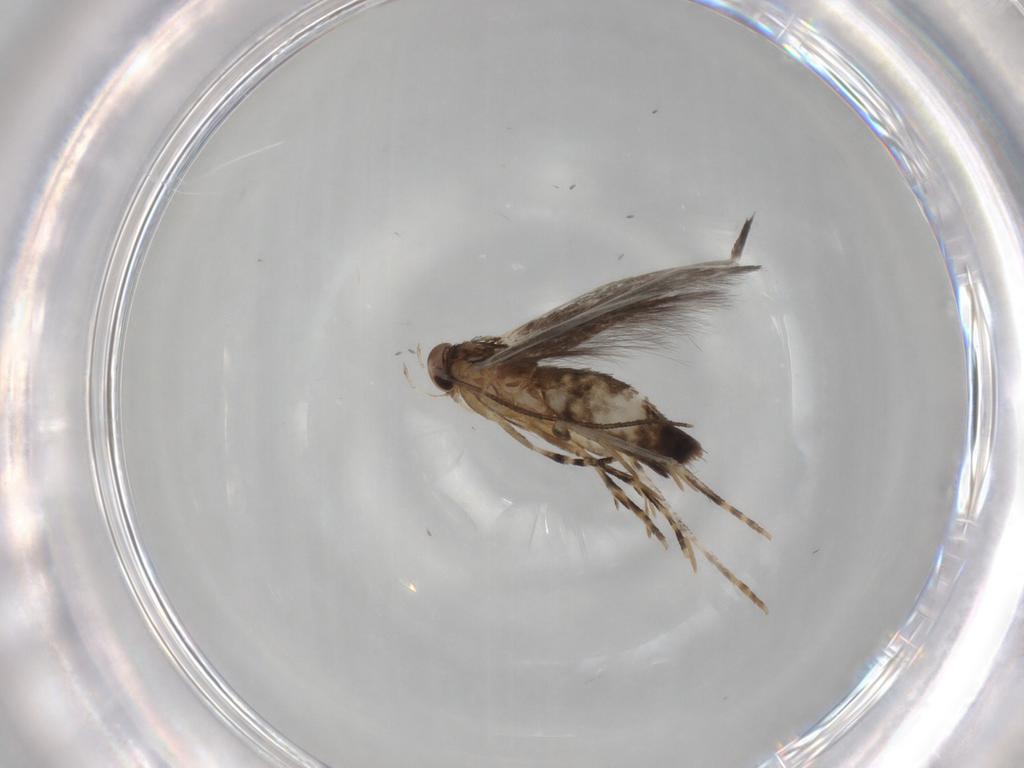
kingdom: Animalia
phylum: Arthropoda
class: Insecta
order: Lepidoptera
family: Elachistidae
